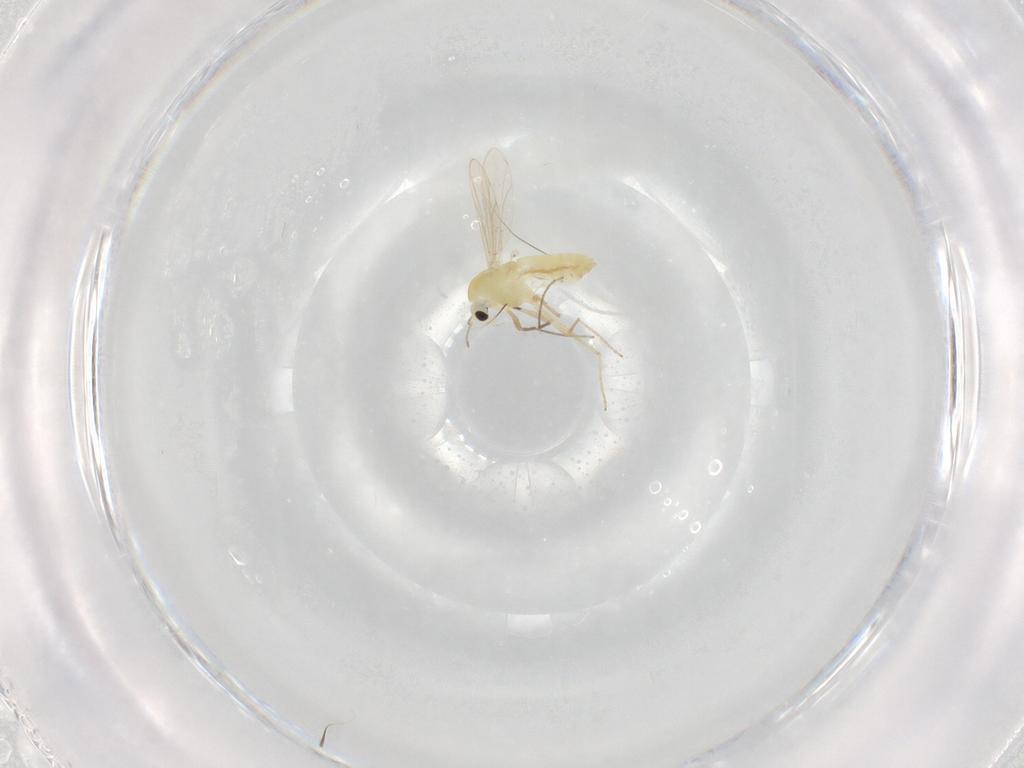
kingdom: Animalia
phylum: Arthropoda
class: Insecta
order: Diptera
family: Chironomidae
